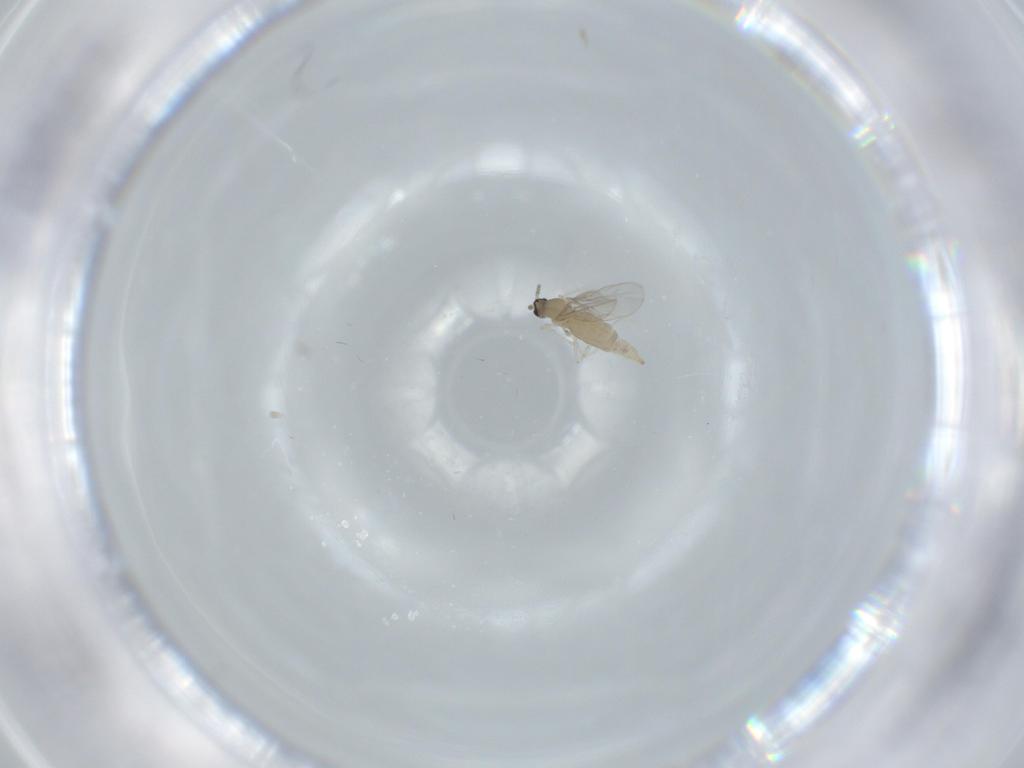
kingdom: Animalia
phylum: Arthropoda
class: Insecta
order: Diptera
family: Cecidomyiidae
